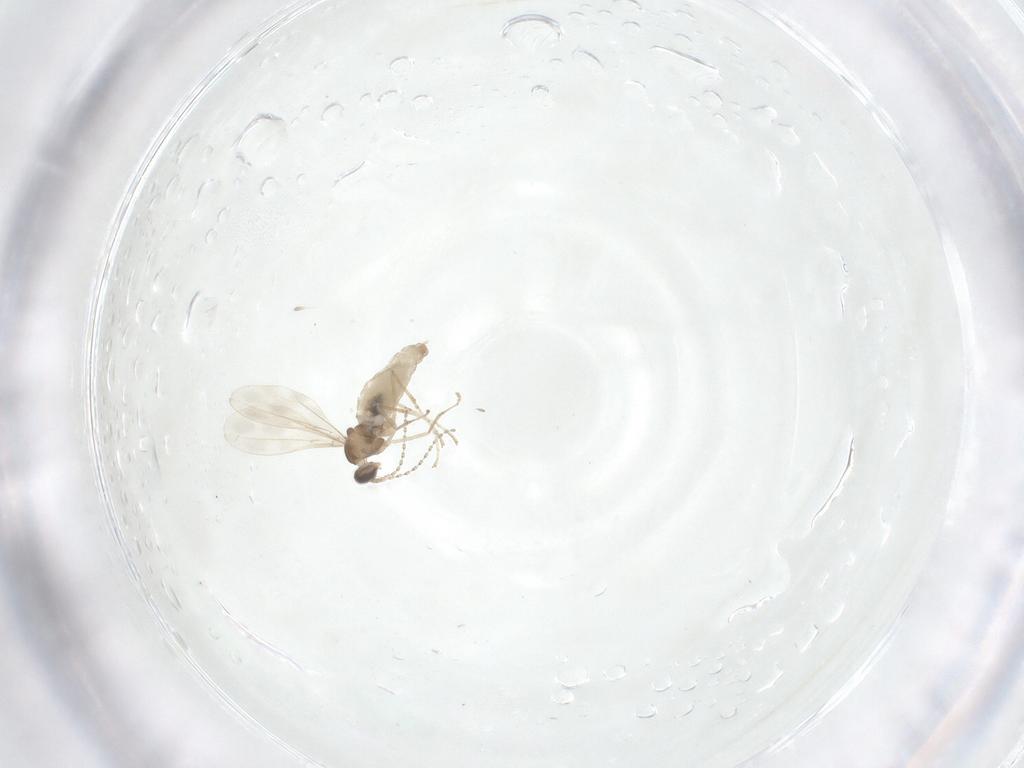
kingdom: Animalia
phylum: Arthropoda
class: Insecta
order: Diptera
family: Cecidomyiidae
